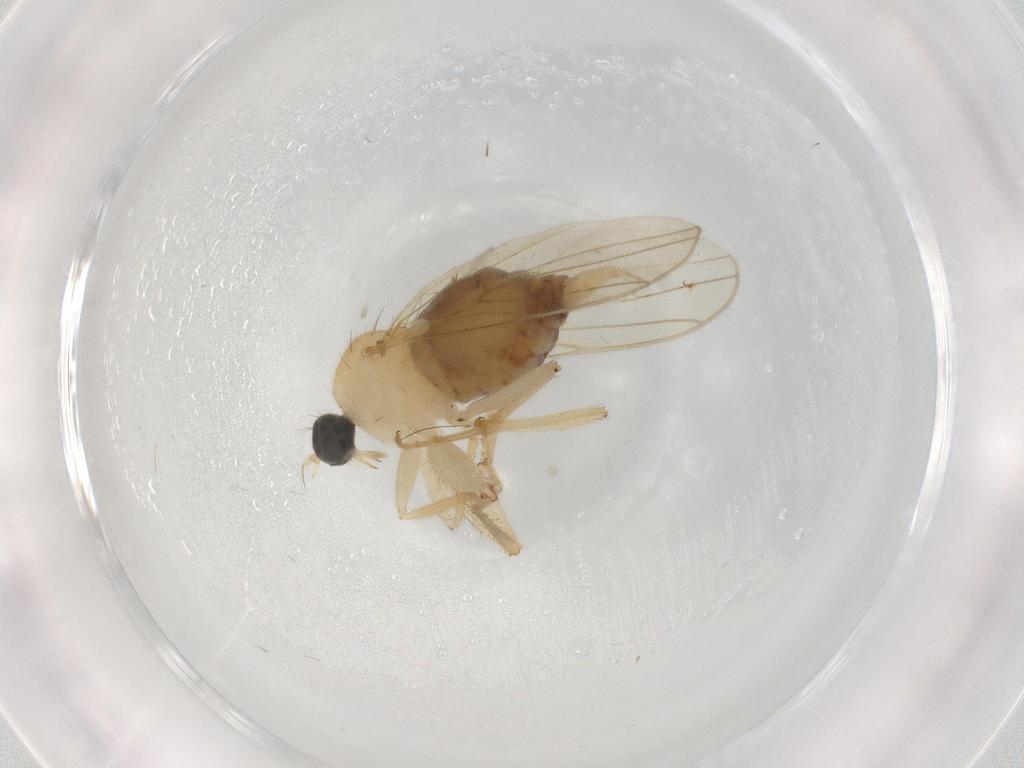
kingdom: Animalia
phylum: Arthropoda
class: Insecta
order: Diptera
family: Hybotidae
